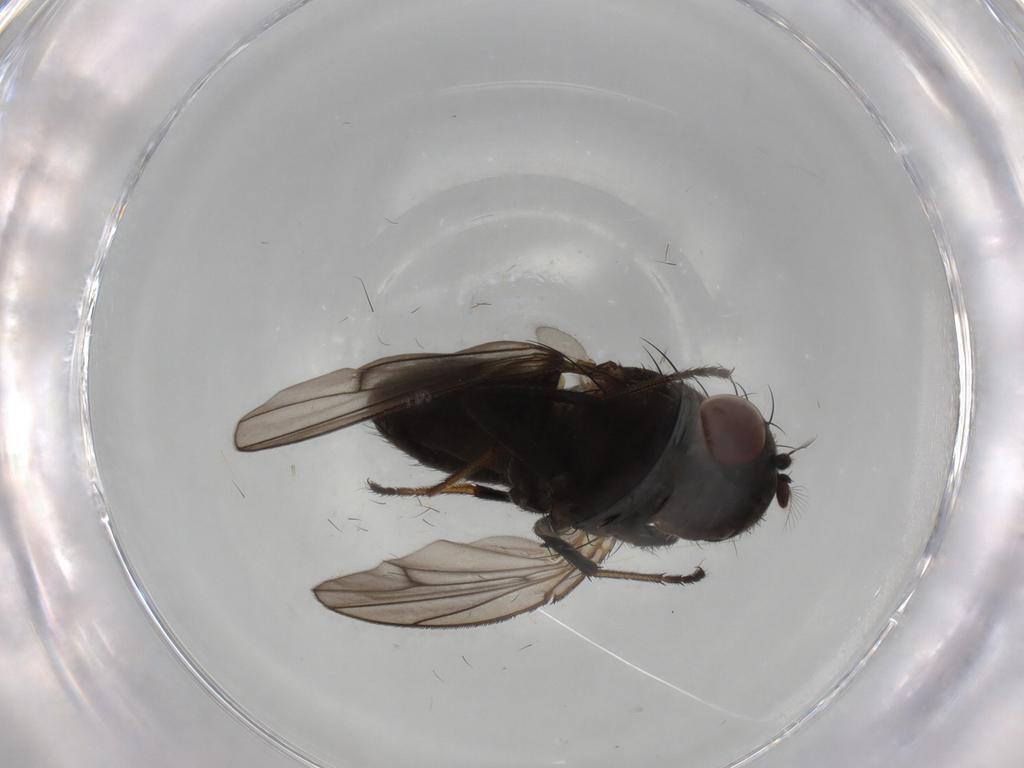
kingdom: Animalia
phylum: Arthropoda
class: Insecta
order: Diptera
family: Ephydridae
